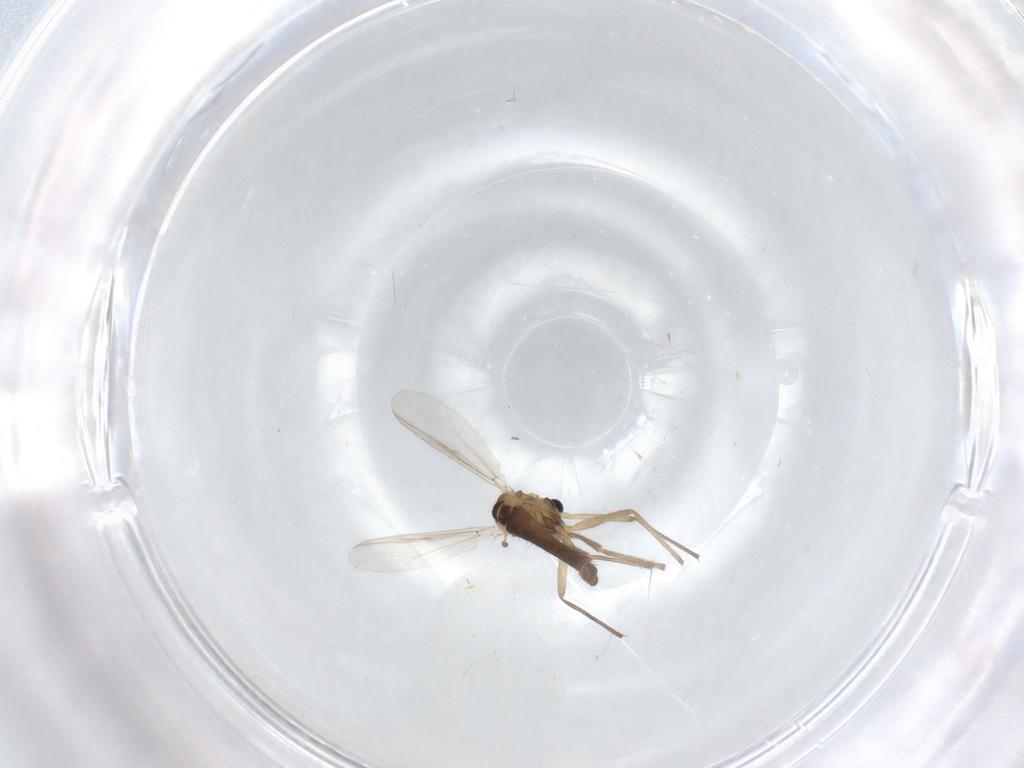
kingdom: Animalia
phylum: Arthropoda
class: Insecta
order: Diptera
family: Chironomidae
